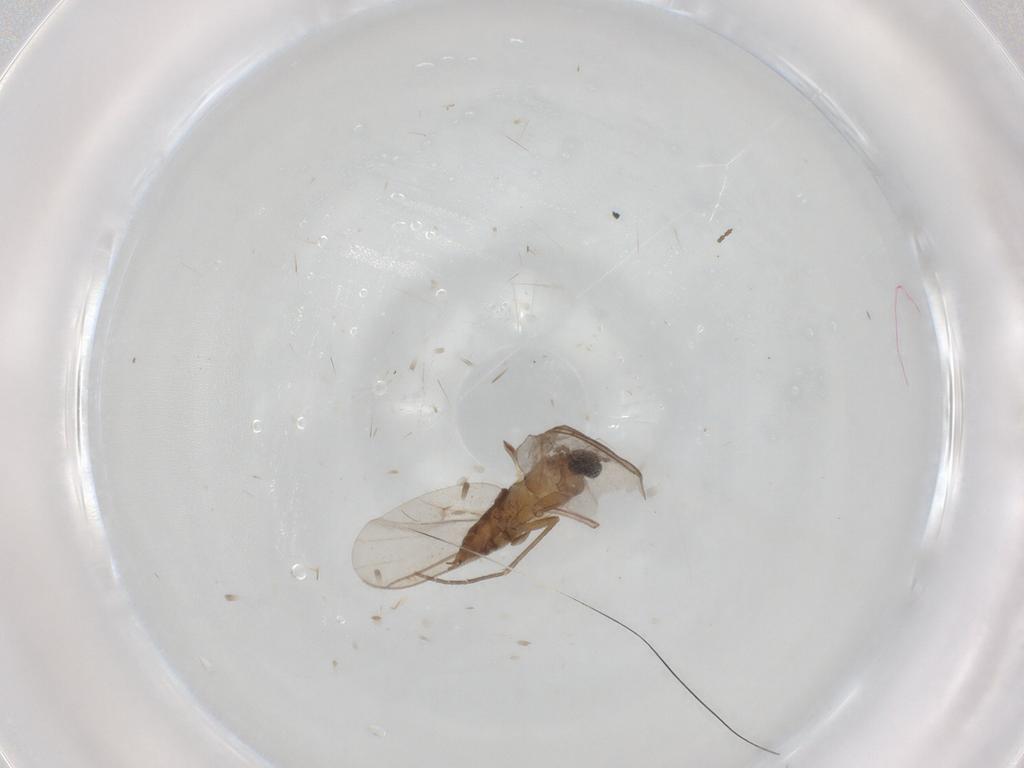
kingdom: Animalia
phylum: Arthropoda
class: Insecta
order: Diptera
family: Sciaridae
